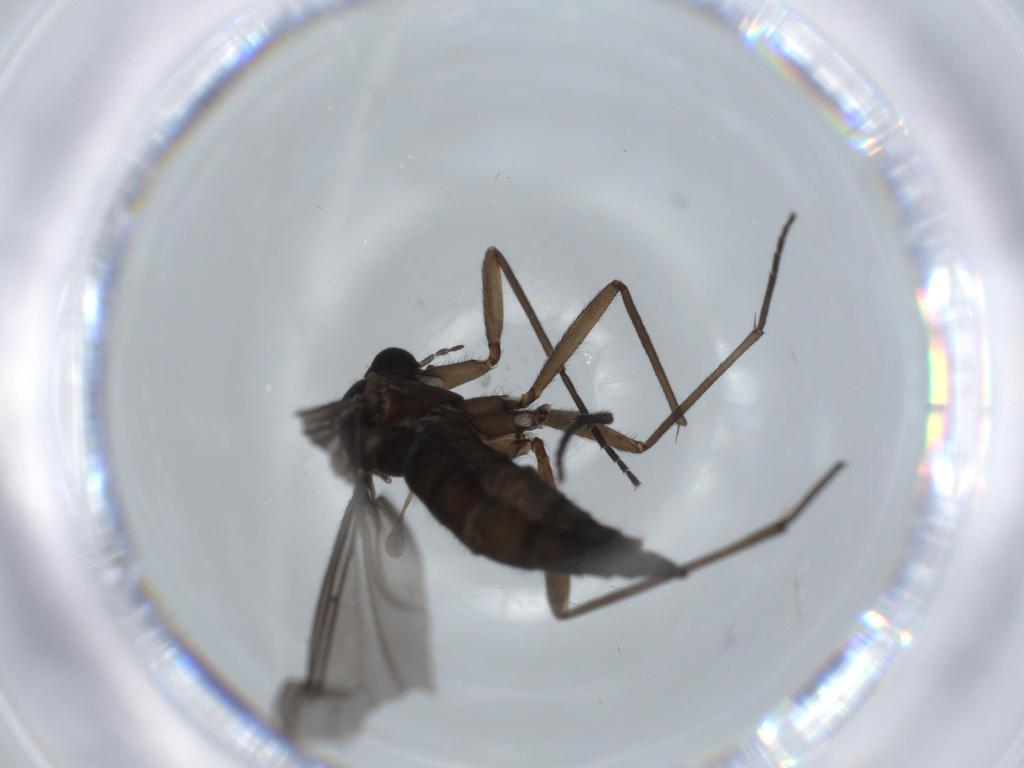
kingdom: Animalia
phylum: Arthropoda
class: Insecta
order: Diptera
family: Sciaridae
